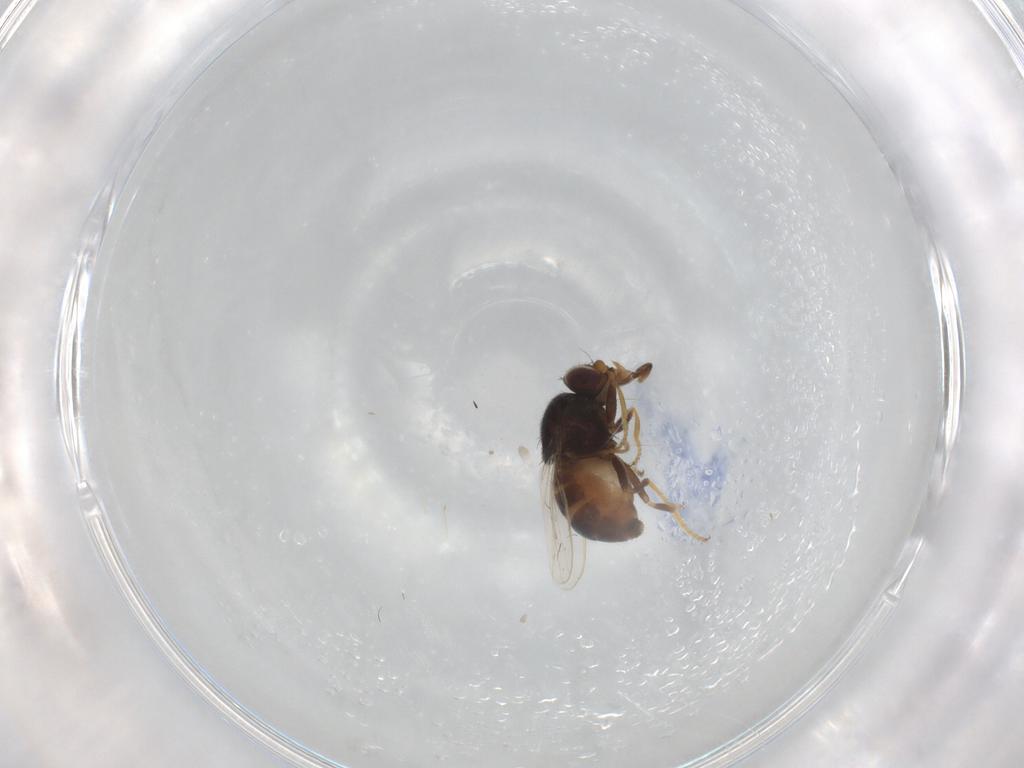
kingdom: Animalia
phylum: Arthropoda
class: Insecta
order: Diptera
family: Chloropidae
